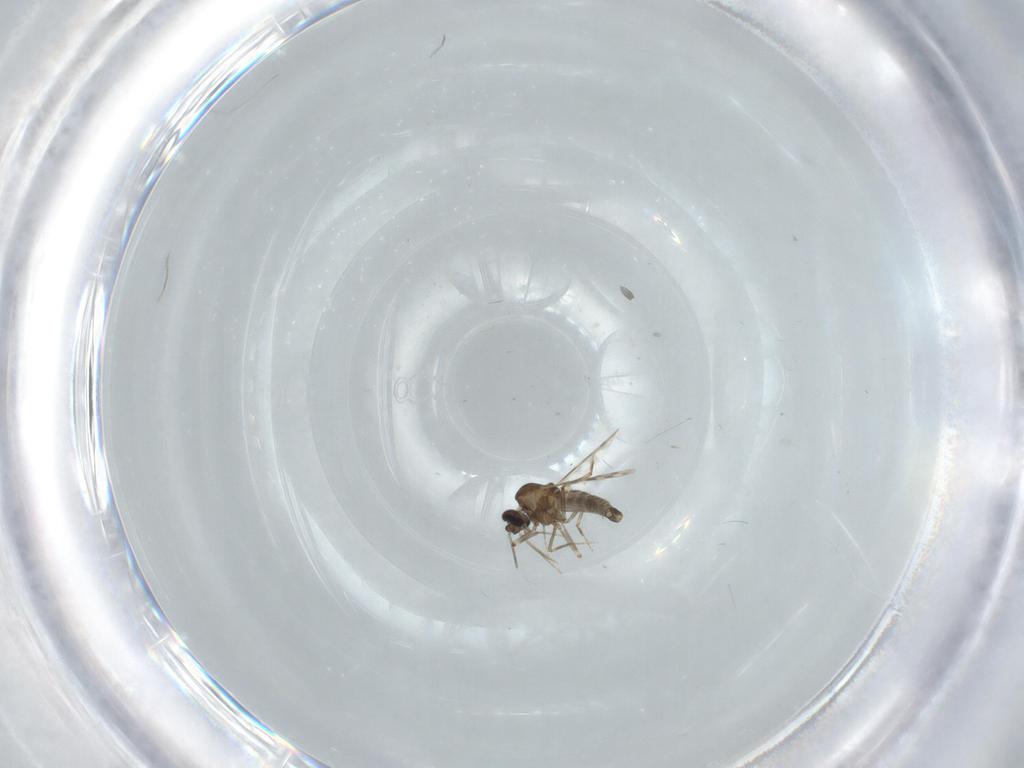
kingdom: Animalia
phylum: Arthropoda
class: Insecta
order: Diptera
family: Ceratopogonidae
